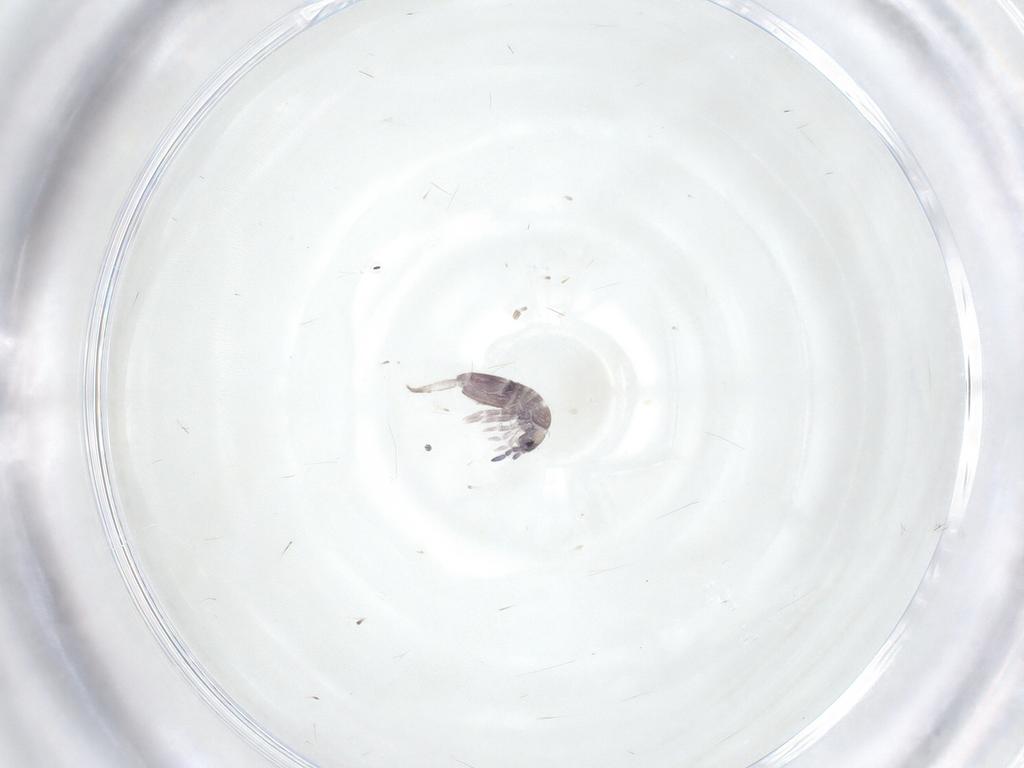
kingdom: Animalia
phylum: Arthropoda
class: Collembola
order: Entomobryomorpha
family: Entomobryidae
